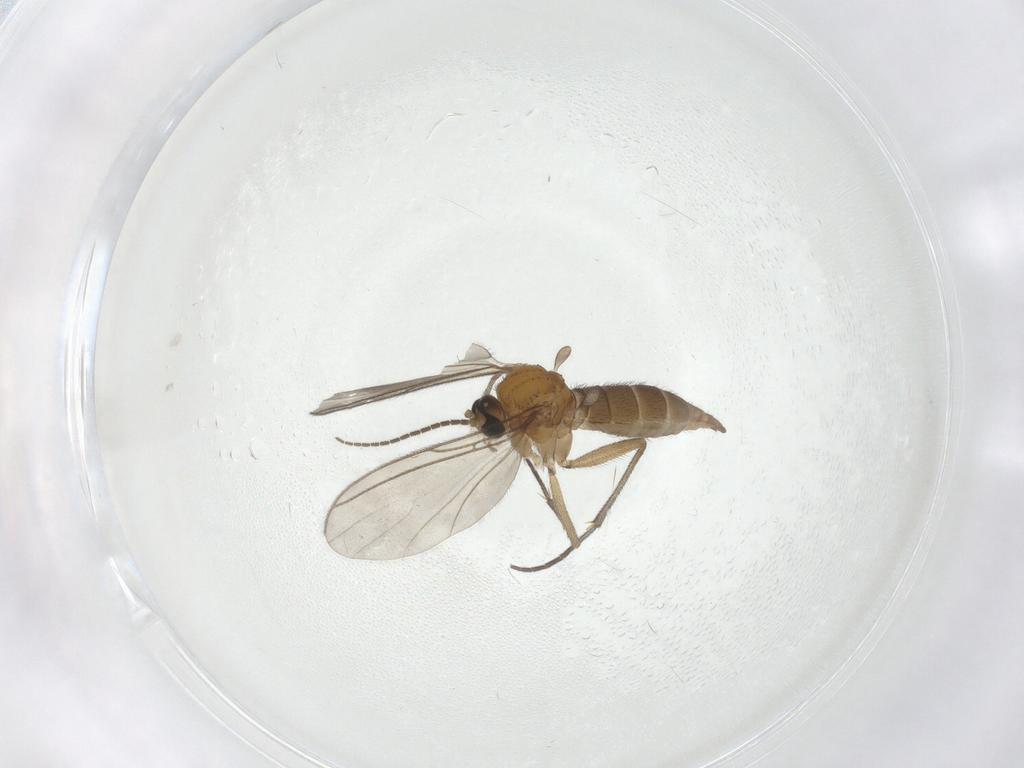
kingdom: Animalia
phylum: Arthropoda
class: Insecta
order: Diptera
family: Sciaridae
